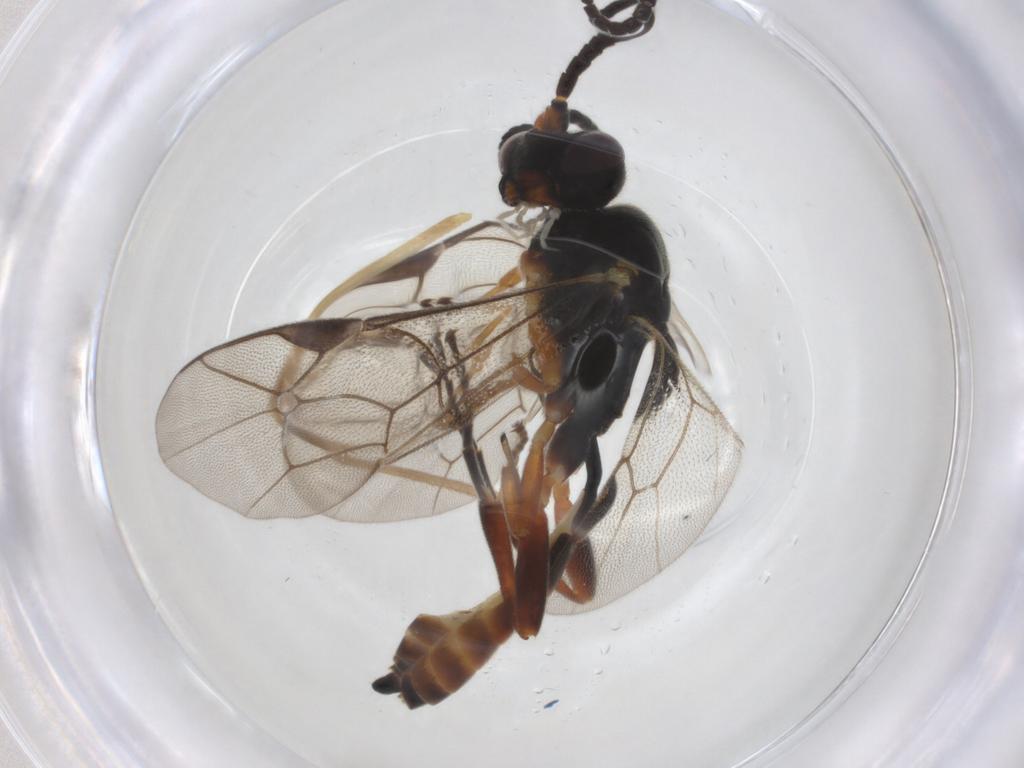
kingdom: Animalia
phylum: Arthropoda
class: Insecta
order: Hymenoptera
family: Ichneumonidae
